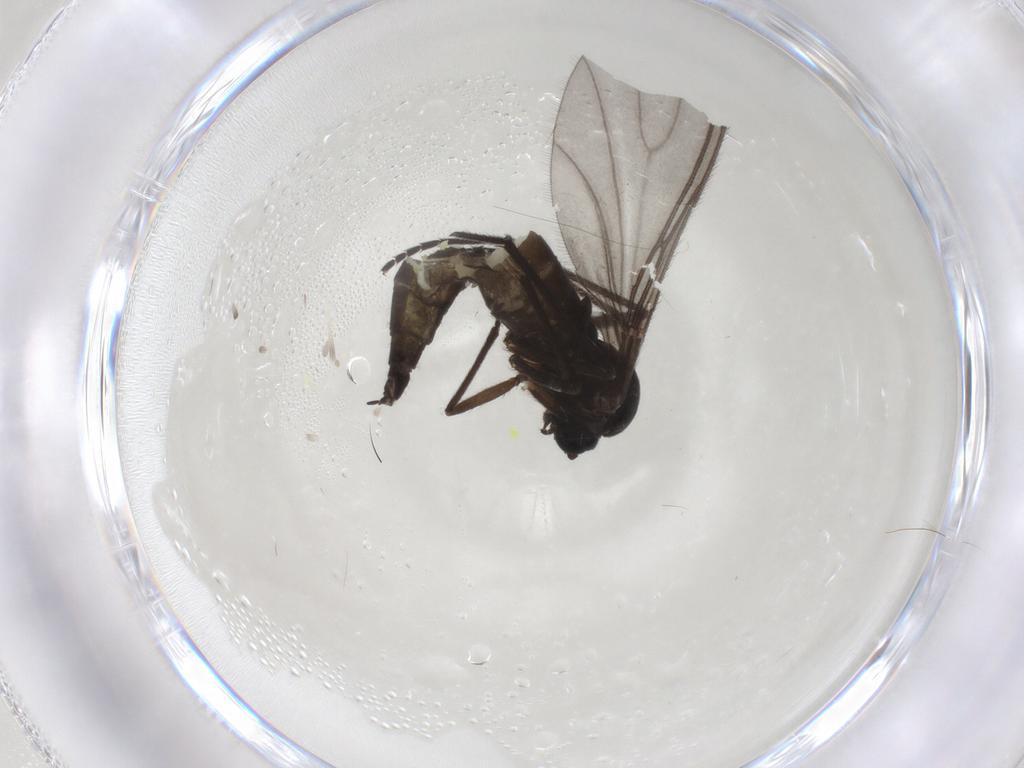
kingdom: Animalia
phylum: Arthropoda
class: Insecta
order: Diptera
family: Sciaridae
